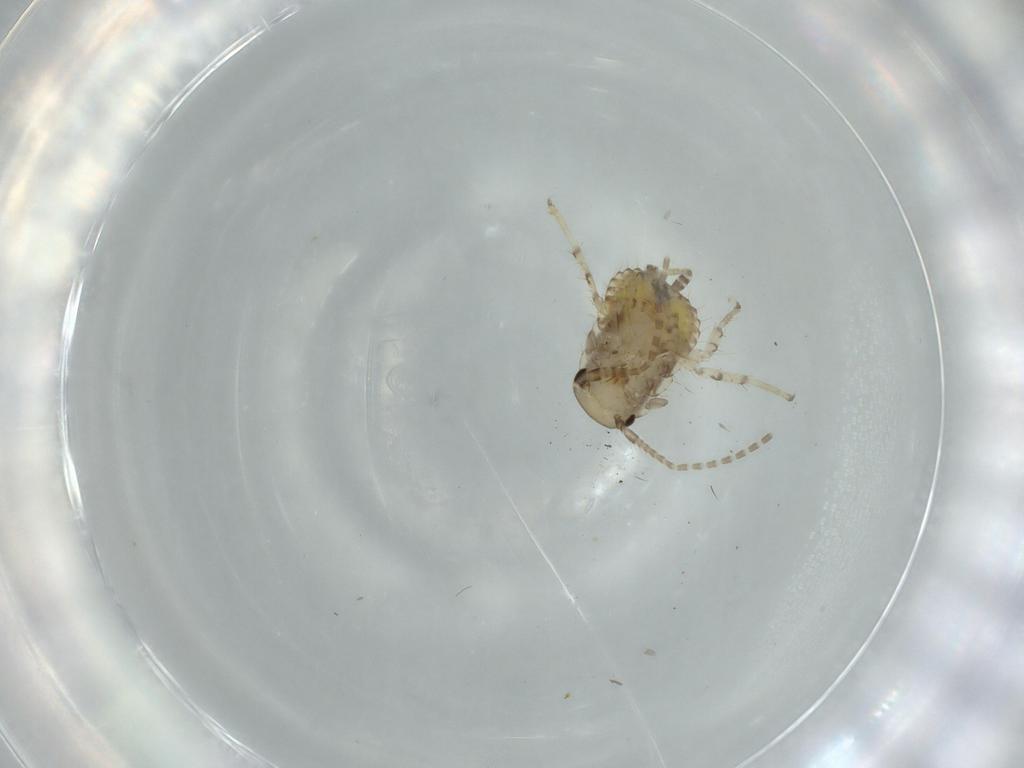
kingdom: Animalia
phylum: Arthropoda
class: Insecta
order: Blattodea
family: Ectobiidae
